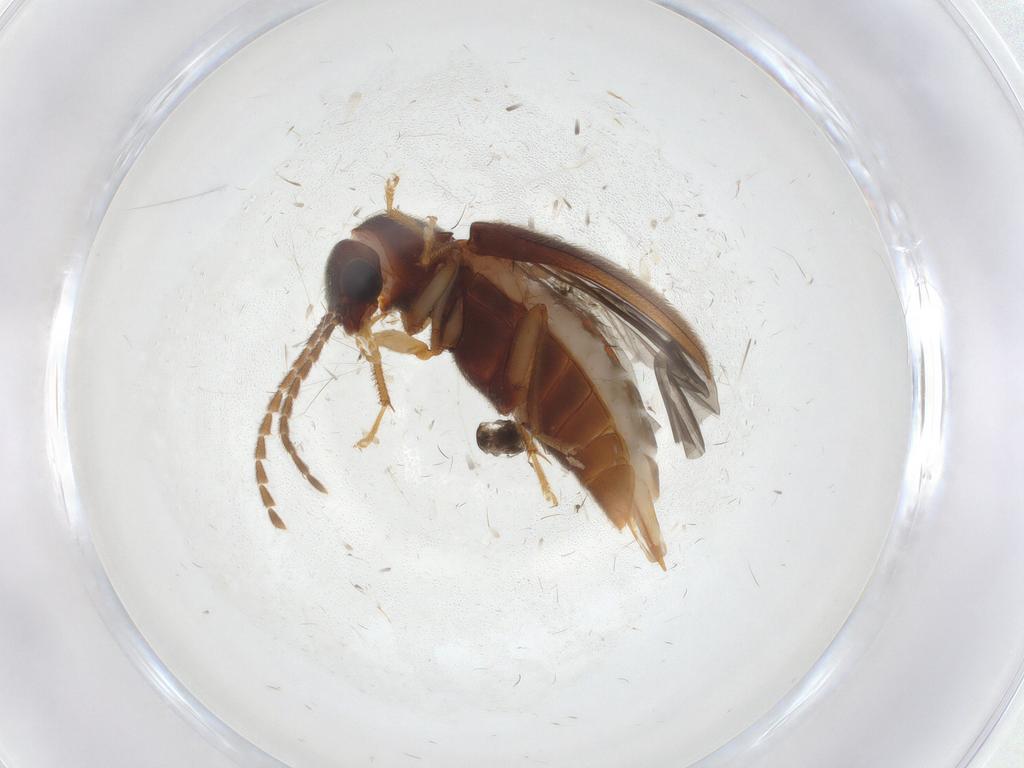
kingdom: Animalia
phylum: Arthropoda
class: Insecta
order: Coleoptera
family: Ptilodactylidae
